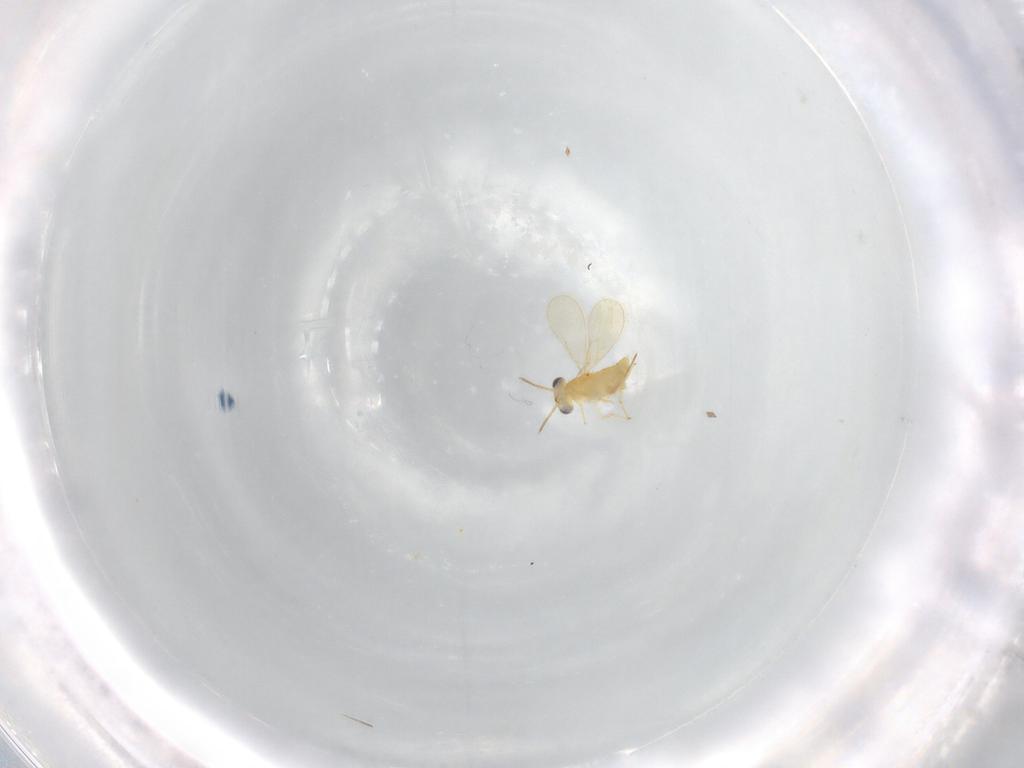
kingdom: Animalia
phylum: Arthropoda
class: Insecta
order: Hymenoptera
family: Aphelinidae
